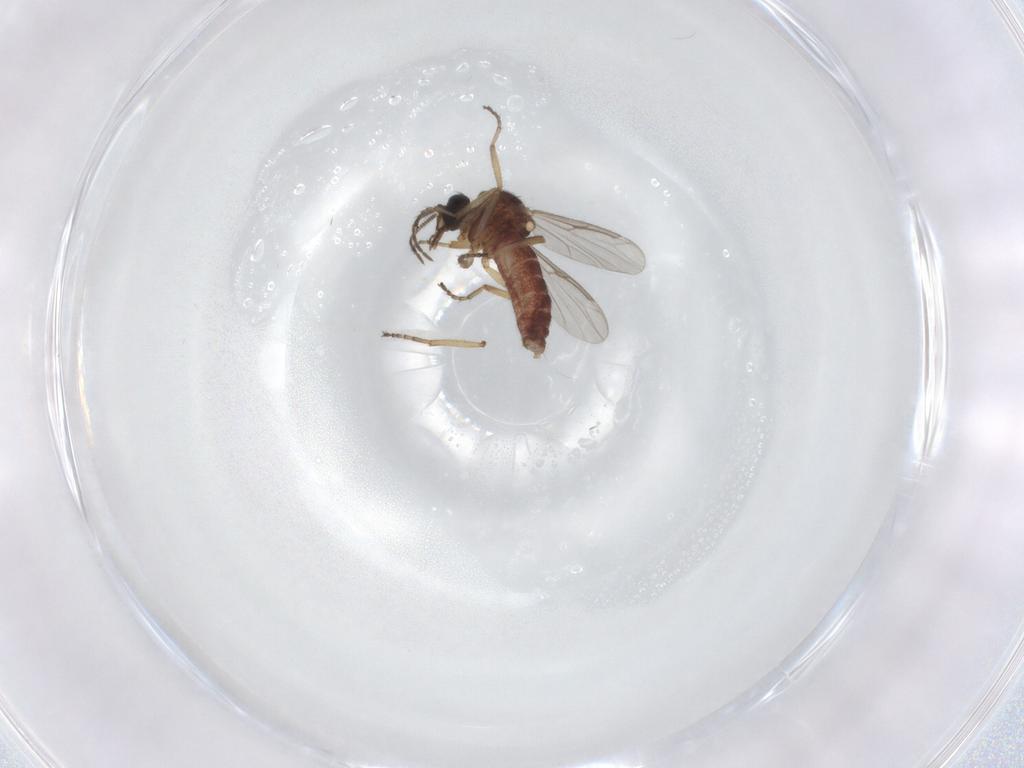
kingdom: Animalia
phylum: Arthropoda
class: Insecta
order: Diptera
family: Ceratopogonidae
